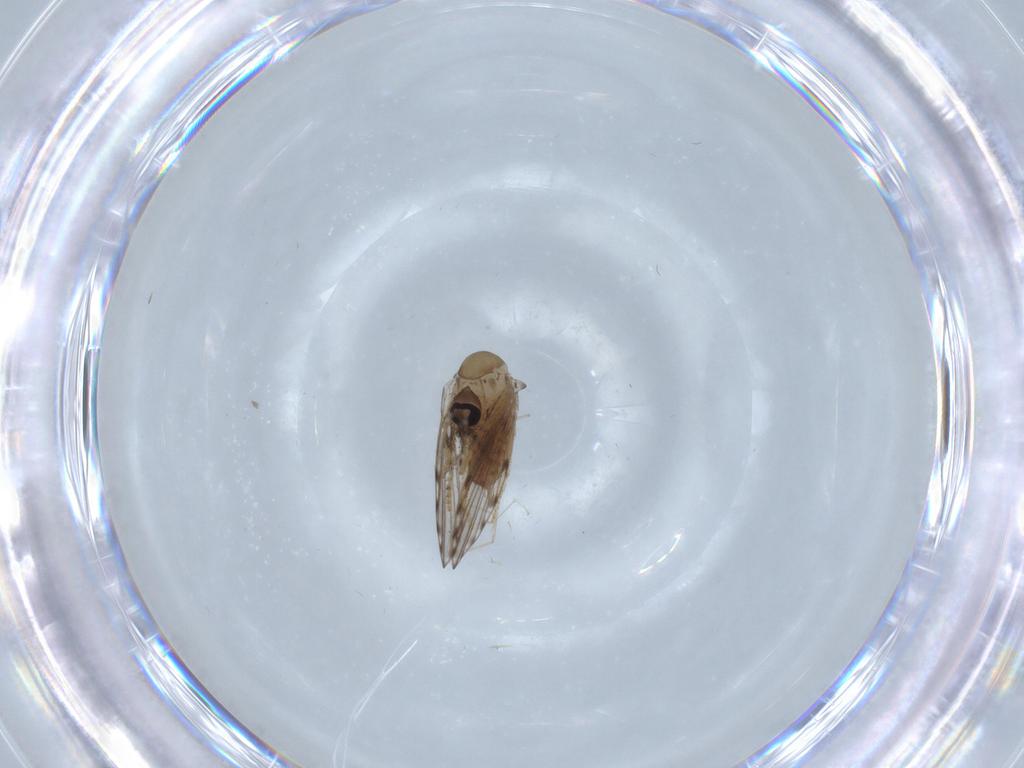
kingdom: Animalia
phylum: Arthropoda
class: Insecta
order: Diptera
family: Psychodidae
